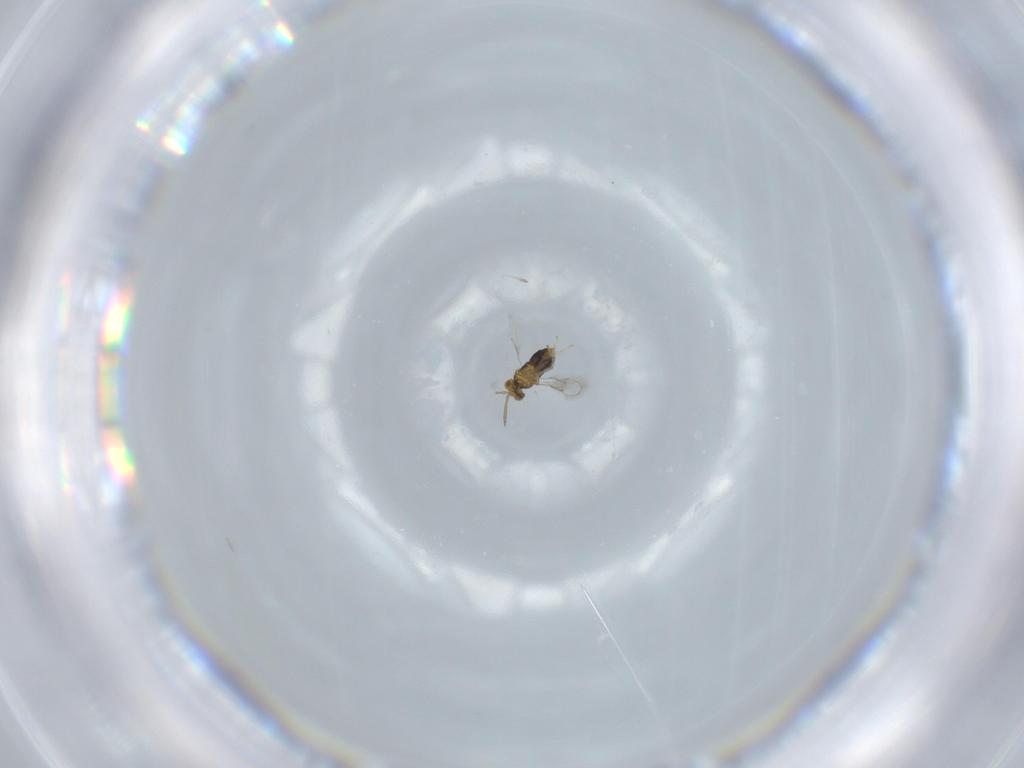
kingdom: Animalia
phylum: Arthropoda
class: Insecta
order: Hymenoptera
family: Aphelinidae
